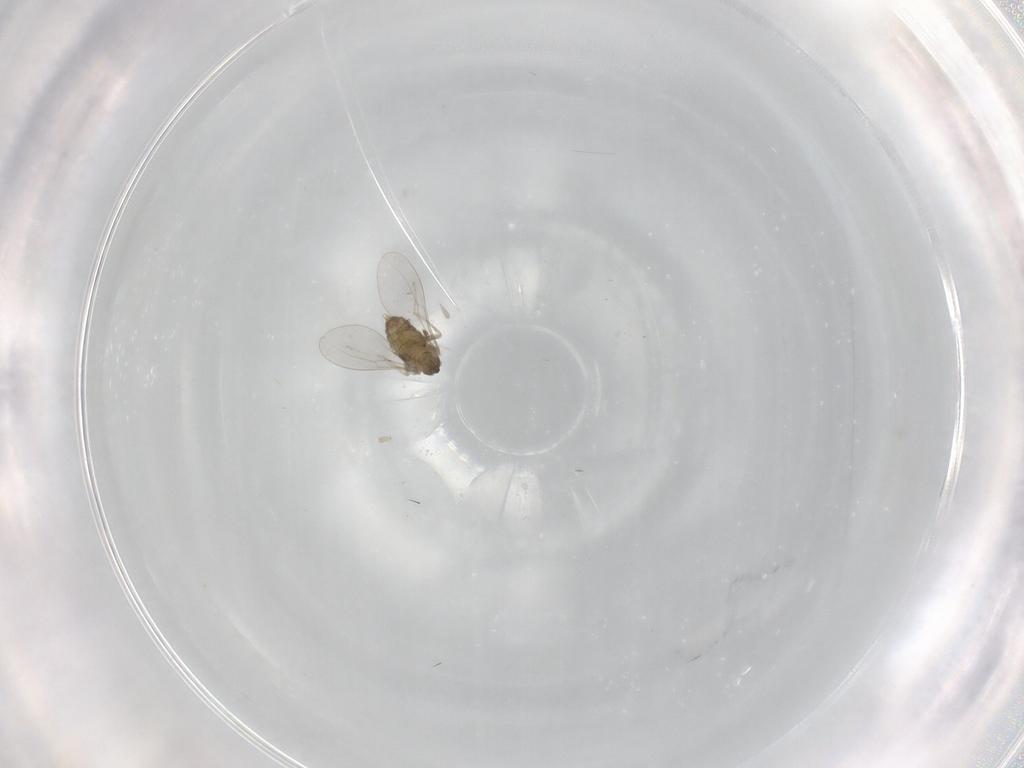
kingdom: Animalia
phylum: Arthropoda
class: Insecta
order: Diptera
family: Cecidomyiidae
